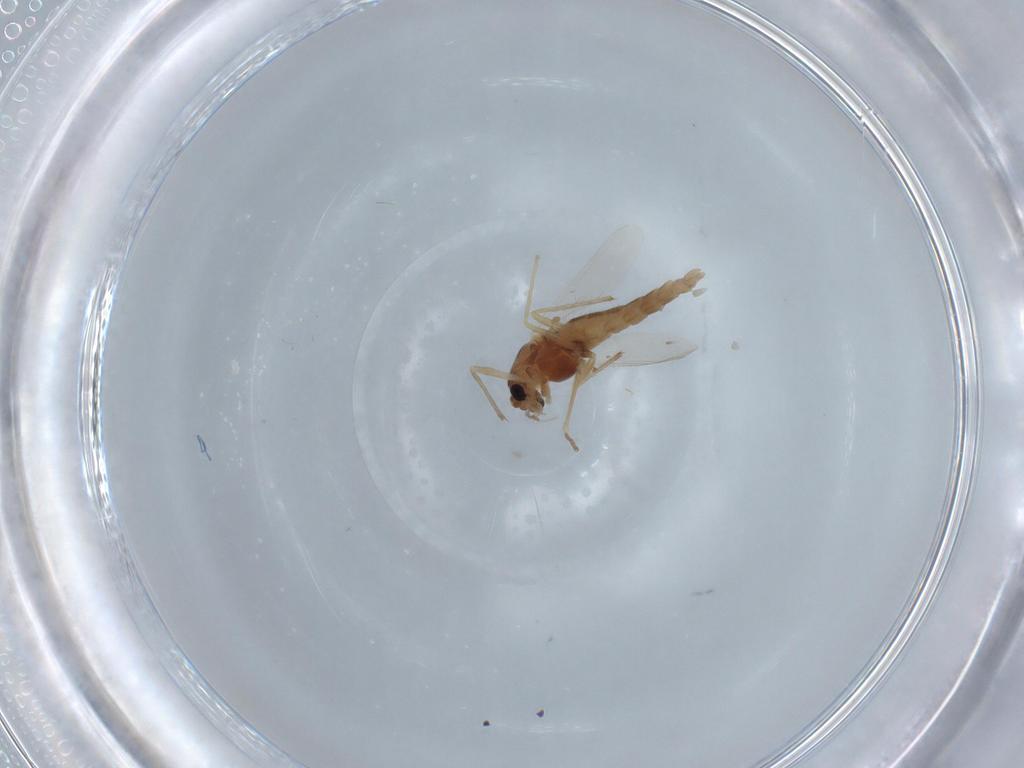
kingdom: Animalia
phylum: Arthropoda
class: Insecta
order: Diptera
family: Chironomidae
